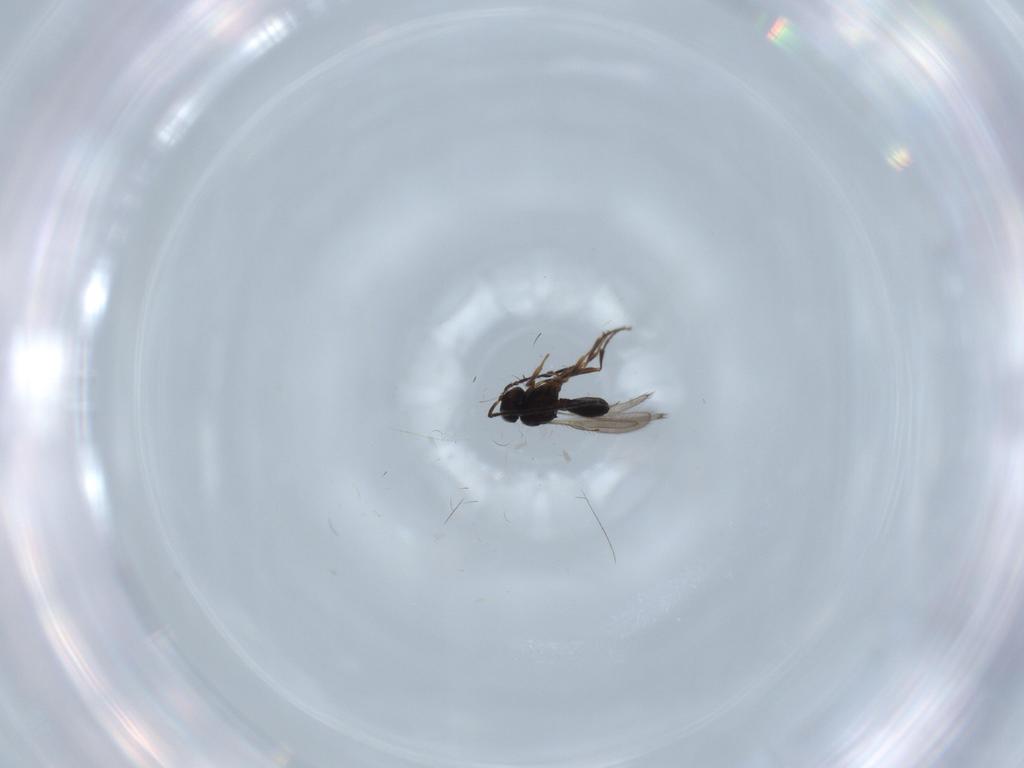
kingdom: Animalia
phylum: Arthropoda
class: Insecta
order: Hymenoptera
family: Scelionidae
